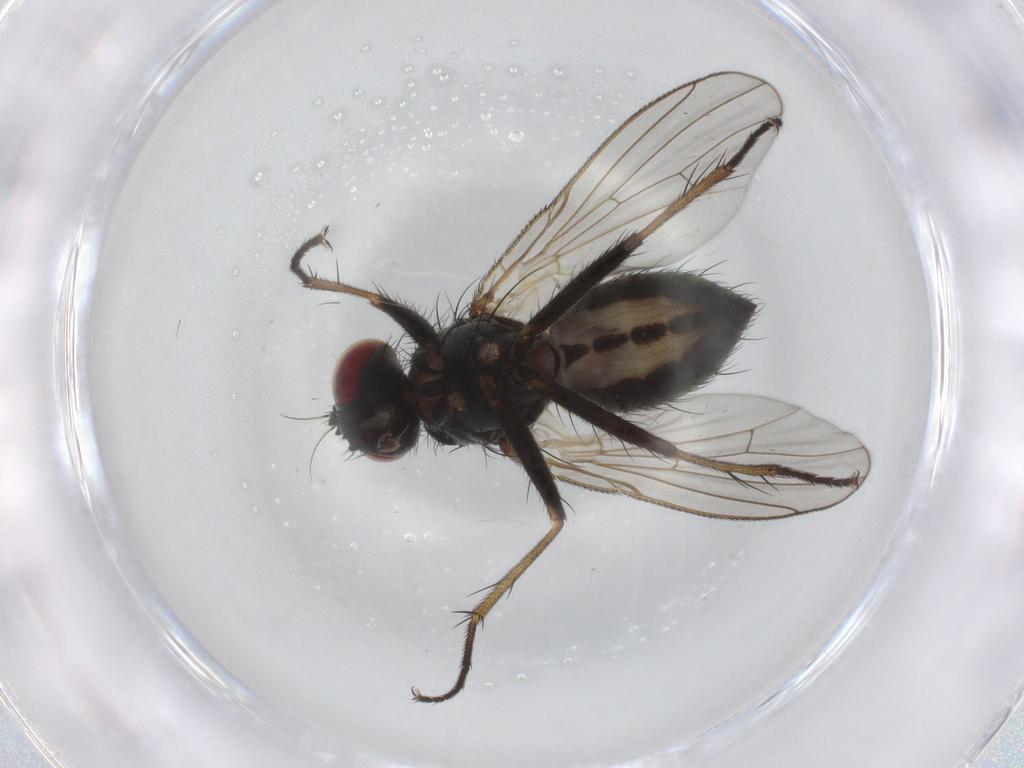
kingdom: Animalia
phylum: Arthropoda
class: Insecta
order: Diptera
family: Cecidomyiidae
